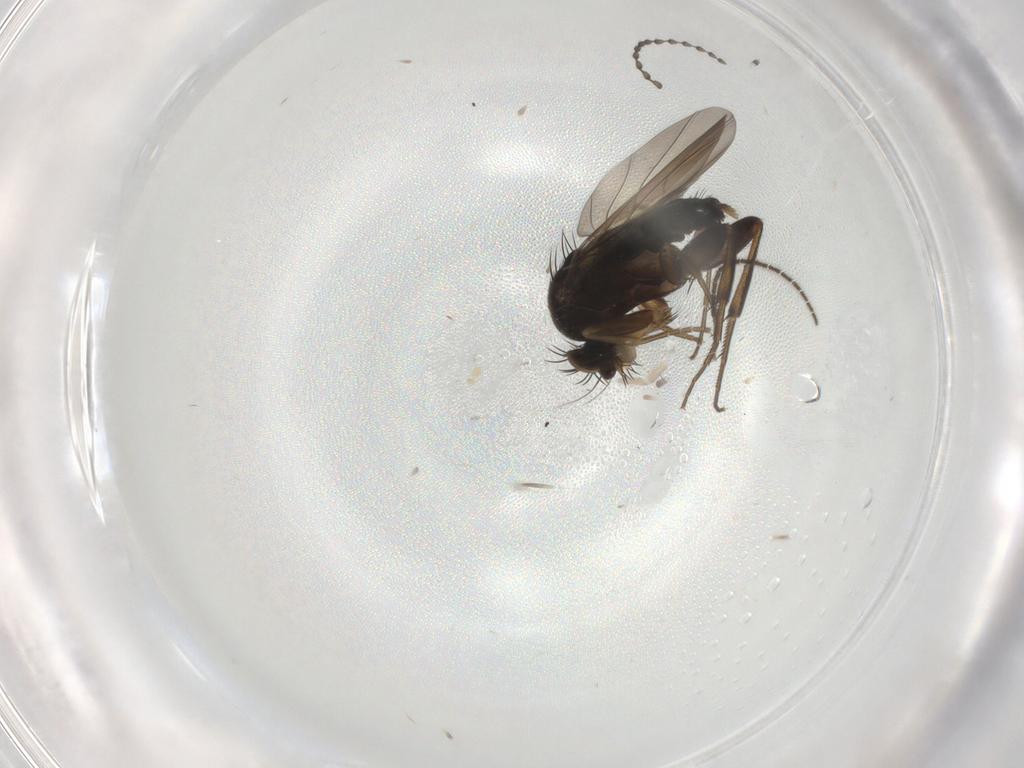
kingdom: Animalia
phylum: Arthropoda
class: Insecta
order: Diptera
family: Phoridae
